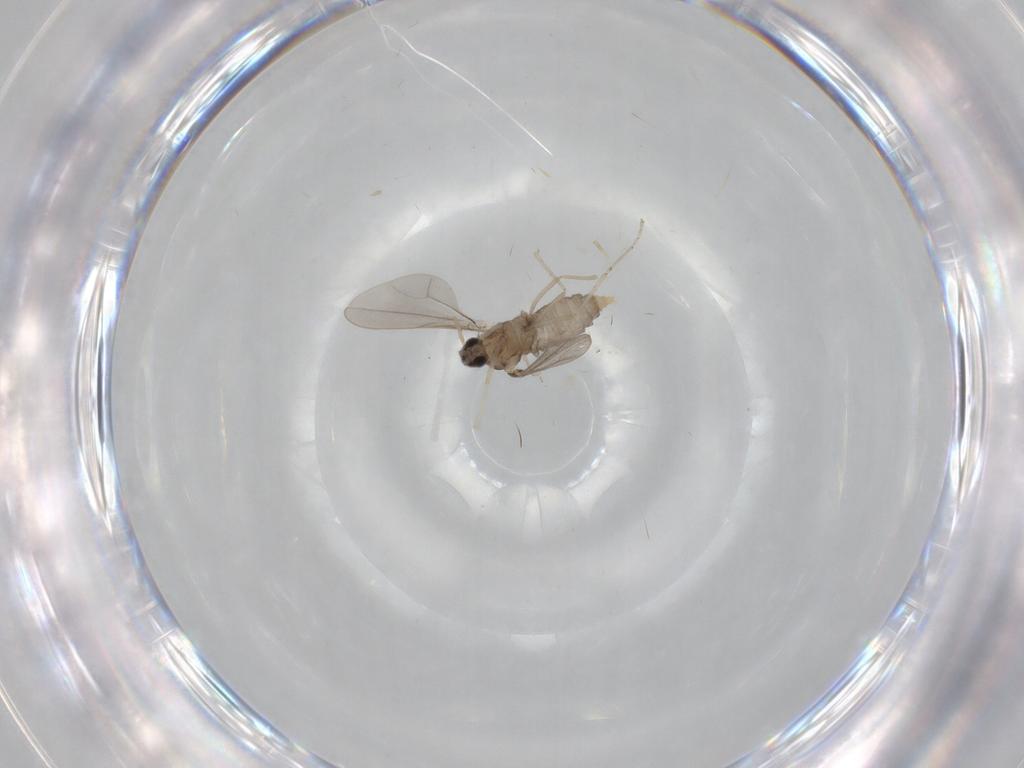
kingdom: Animalia
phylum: Arthropoda
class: Insecta
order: Diptera
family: Cecidomyiidae
